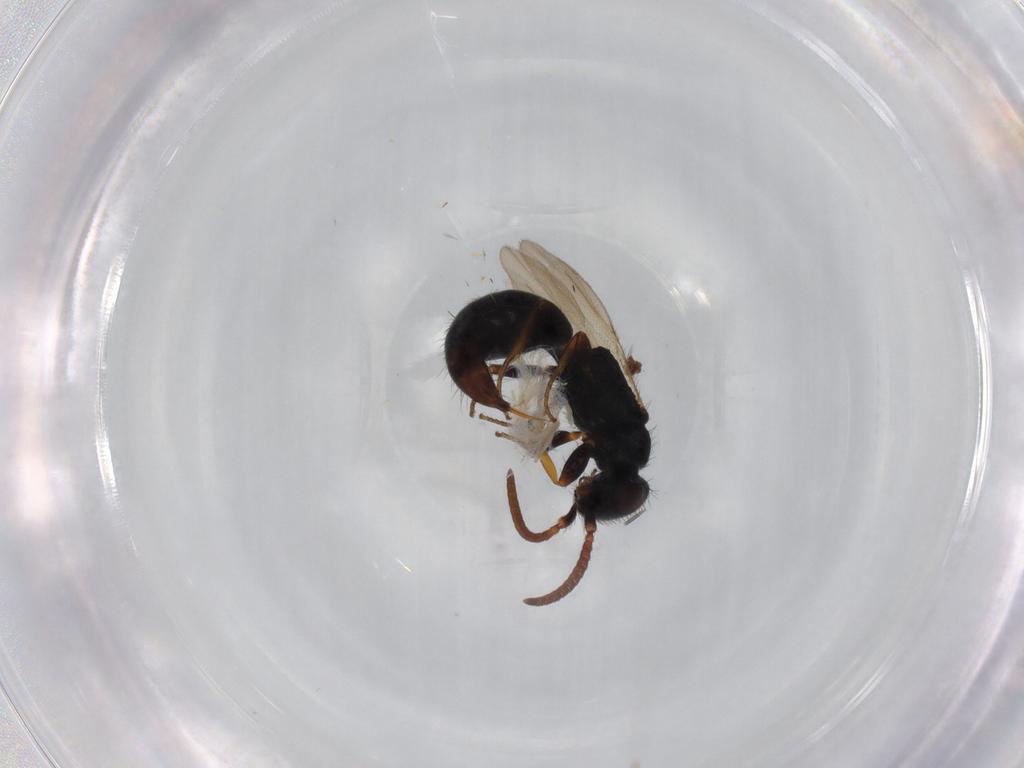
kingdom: Animalia
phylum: Arthropoda
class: Insecta
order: Hymenoptera
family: Bethylidae
